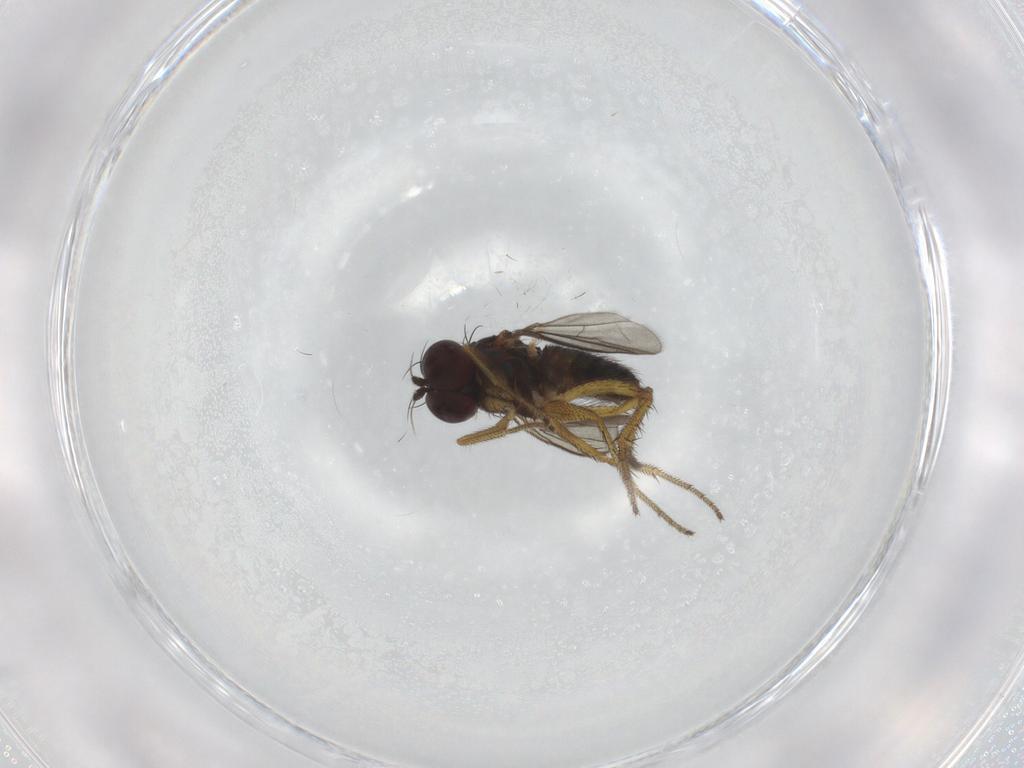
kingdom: Animalia
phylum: Arthropoda
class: Insecta
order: Diptera
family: Chironomidae
